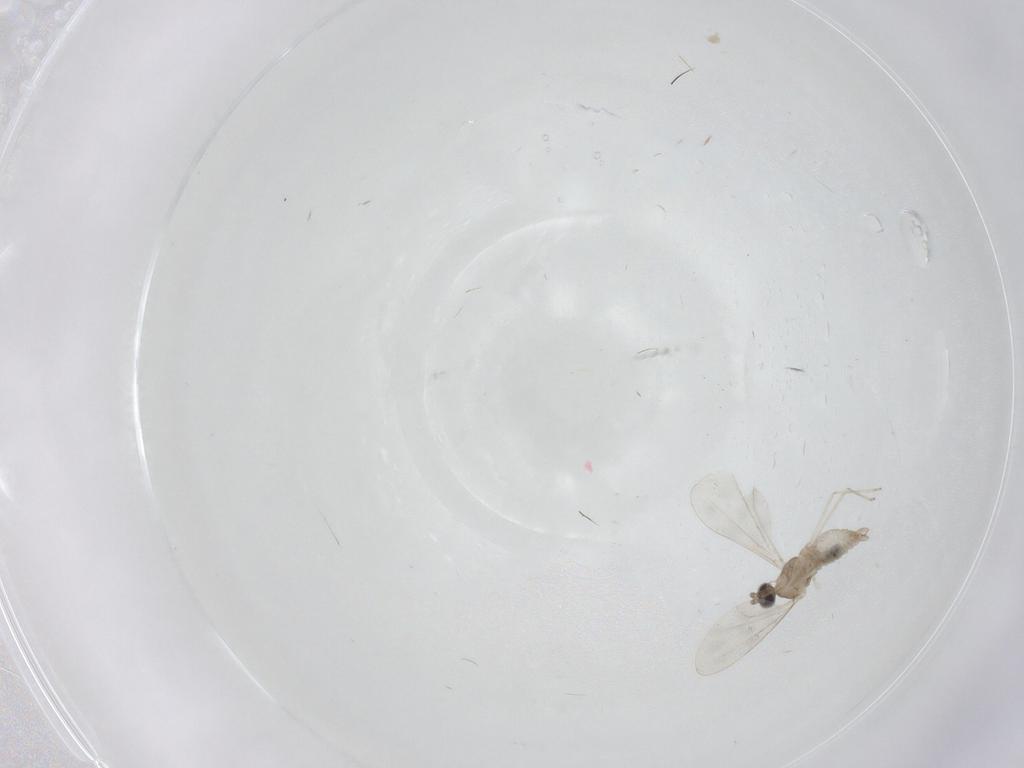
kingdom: Animalia
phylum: Arthropoda
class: Insecta
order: Diptera
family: Cecidomyiidae
